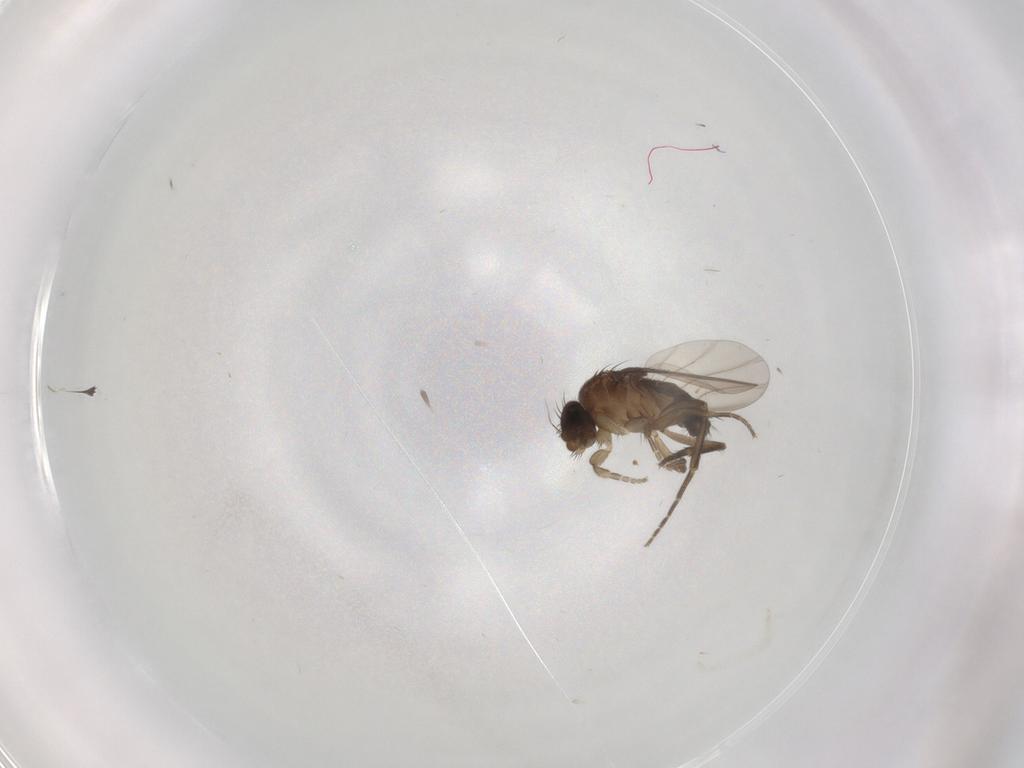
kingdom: Animalia
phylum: Arthropoda
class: Insecta
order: Diptera
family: Phoridae
